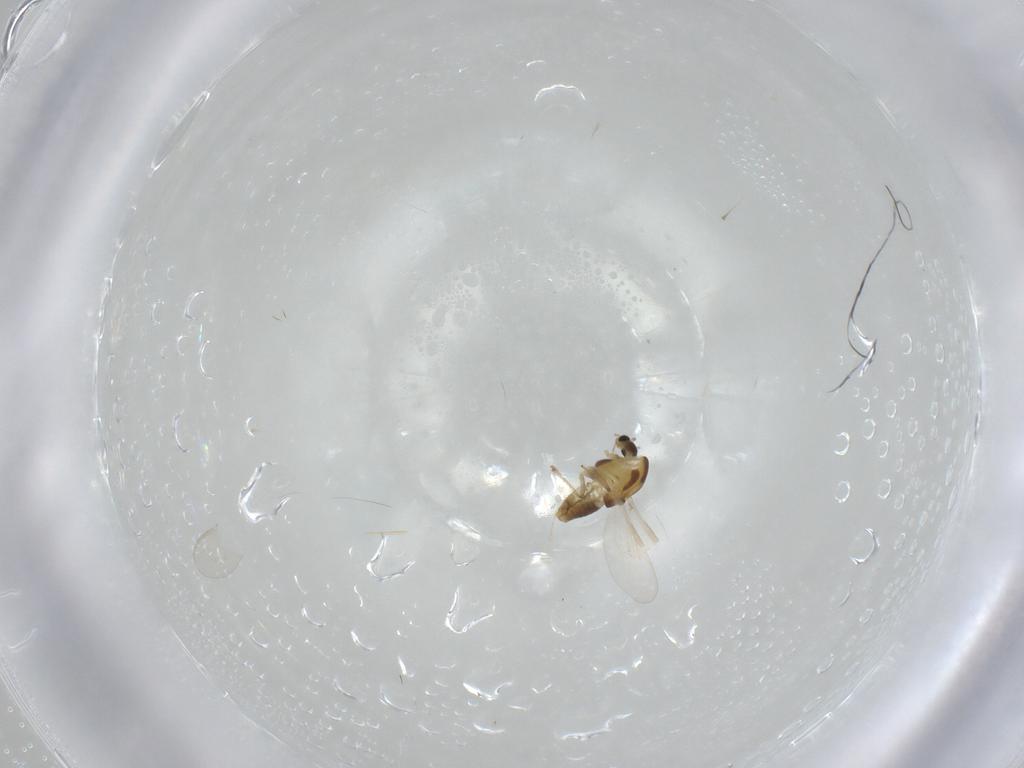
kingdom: Animalia
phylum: Arthropoda
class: Insecta
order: Diptera
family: Chironomidae
